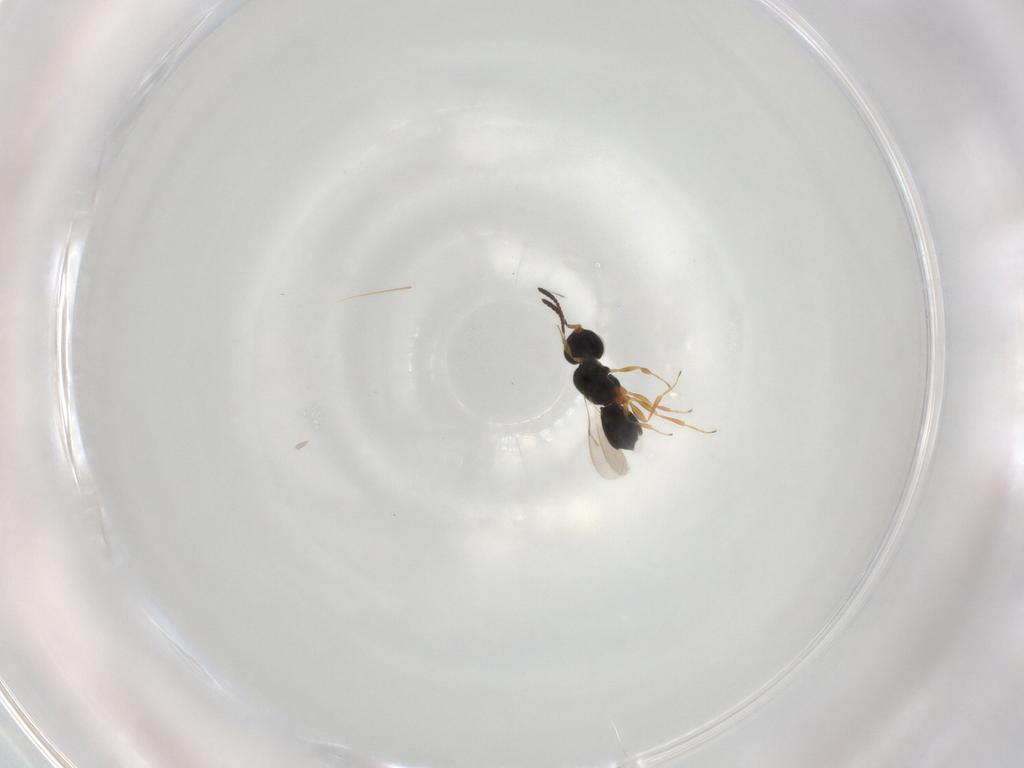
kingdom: Animalia
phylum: Arthropoda
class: Insecta
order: Hymenoptera
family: Scelionidae
